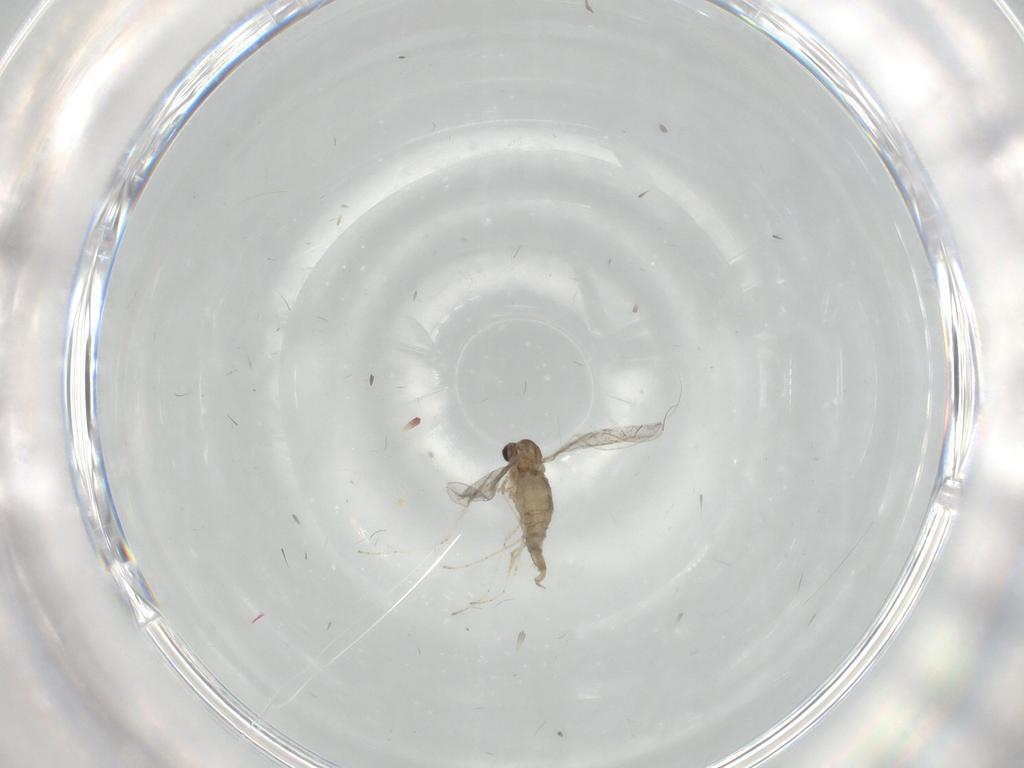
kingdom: Animalia
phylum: Arthropoda
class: Insecta
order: Diptera
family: Cecidomyiidae
